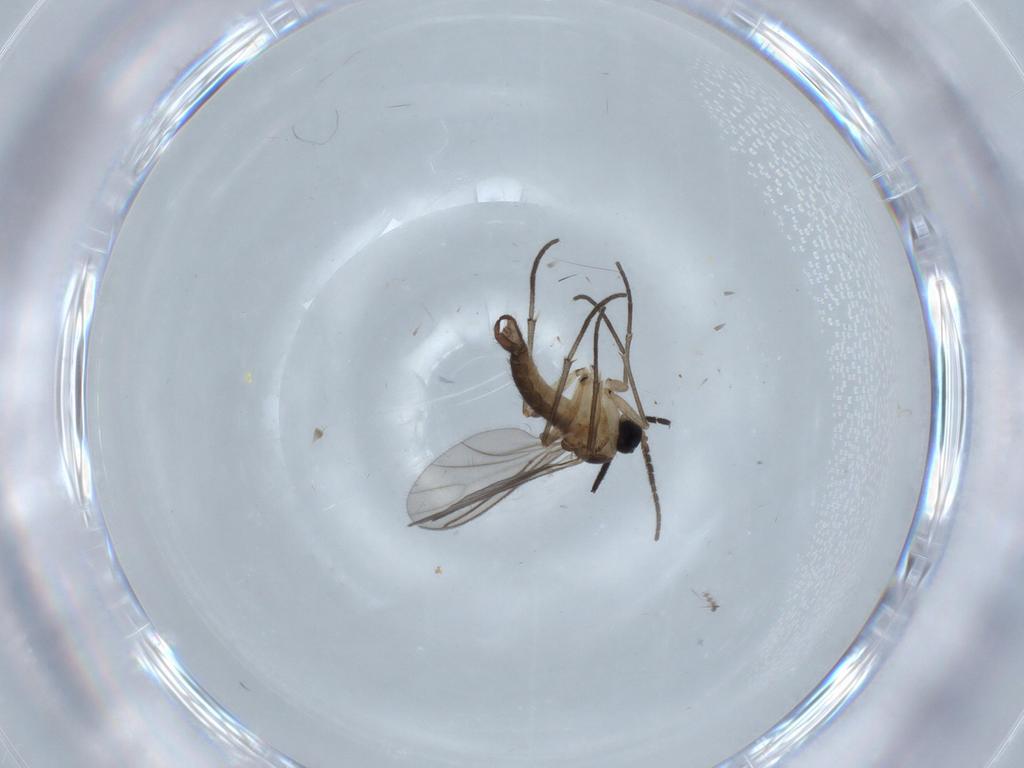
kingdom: Animalia
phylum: Arthropoda
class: Insecta
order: Diptera
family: Sciaridae
